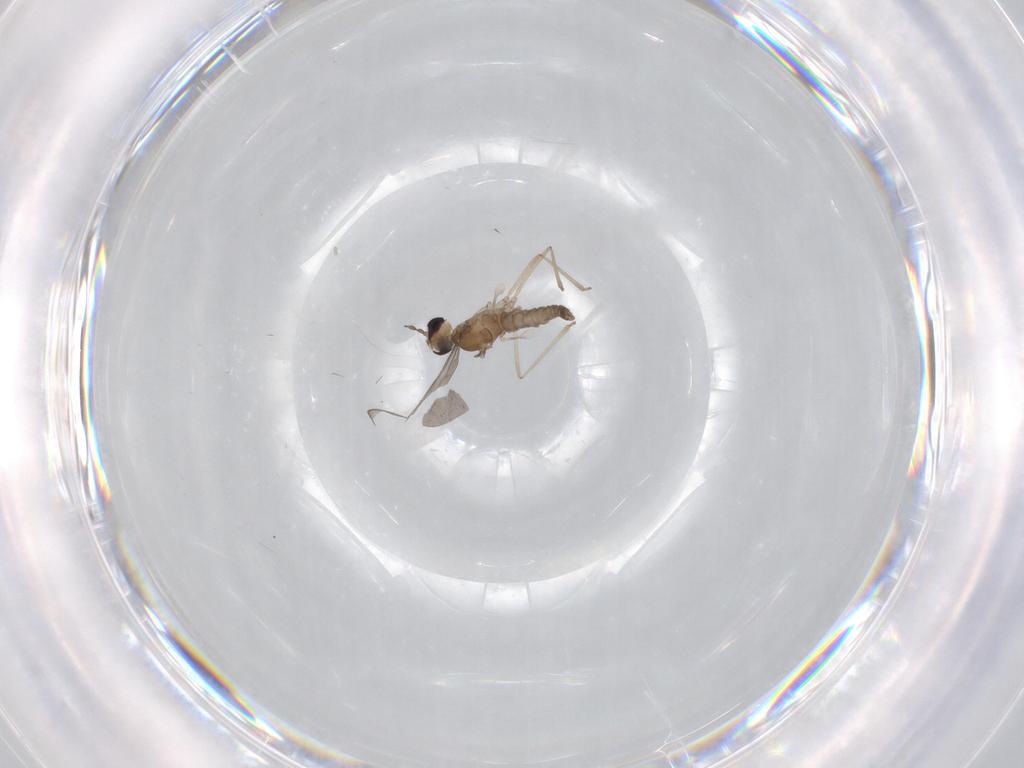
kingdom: Animalia
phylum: Arthropoda
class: Insecta
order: Diptera
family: Cecidomyiidae
